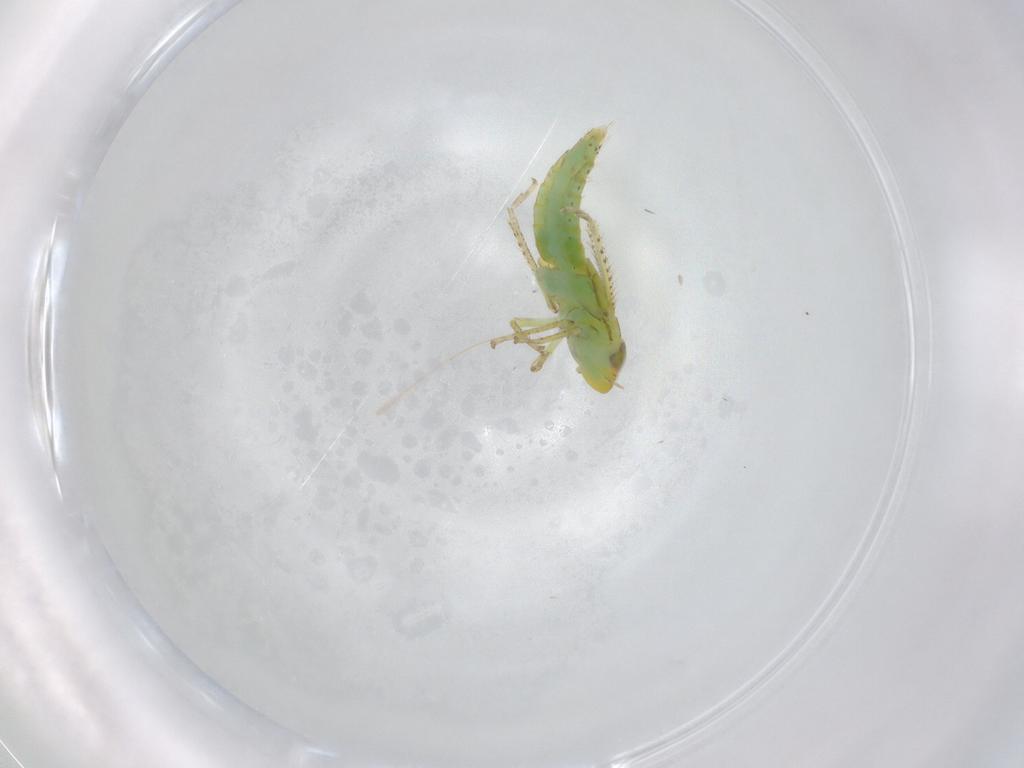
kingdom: Animalia
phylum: Arthropoda
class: Insecta
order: Hemiptera
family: Cicadellidae
